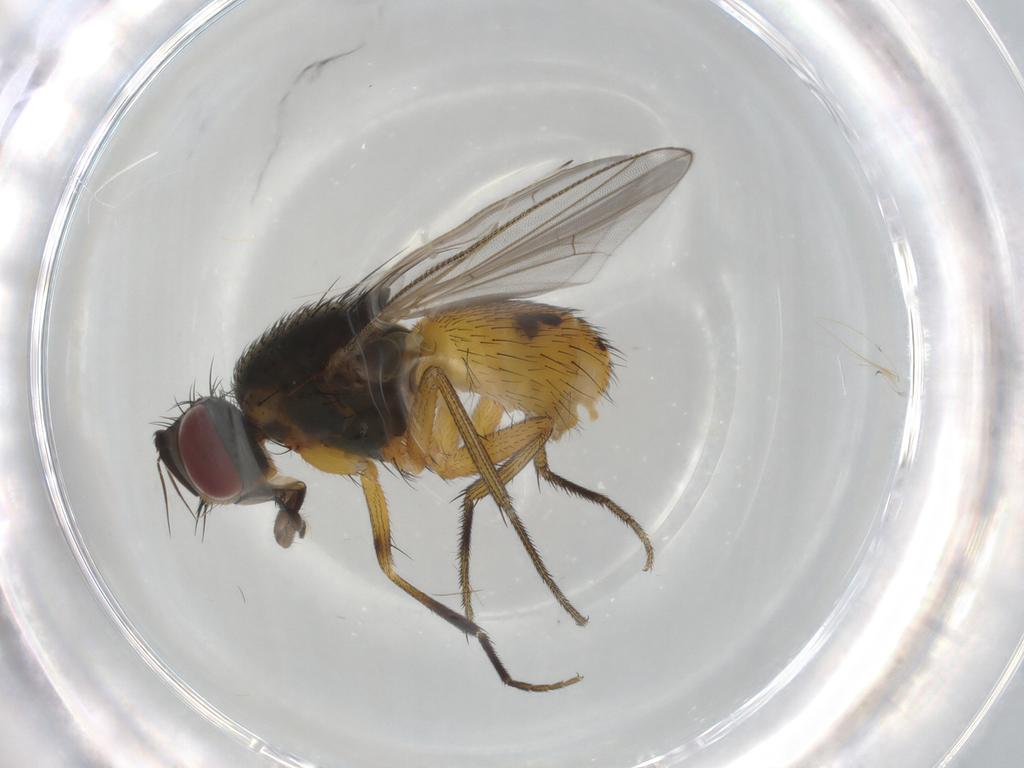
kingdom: Animalia
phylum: Arthropoda
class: Insecta
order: Diptera
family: Muscidae
